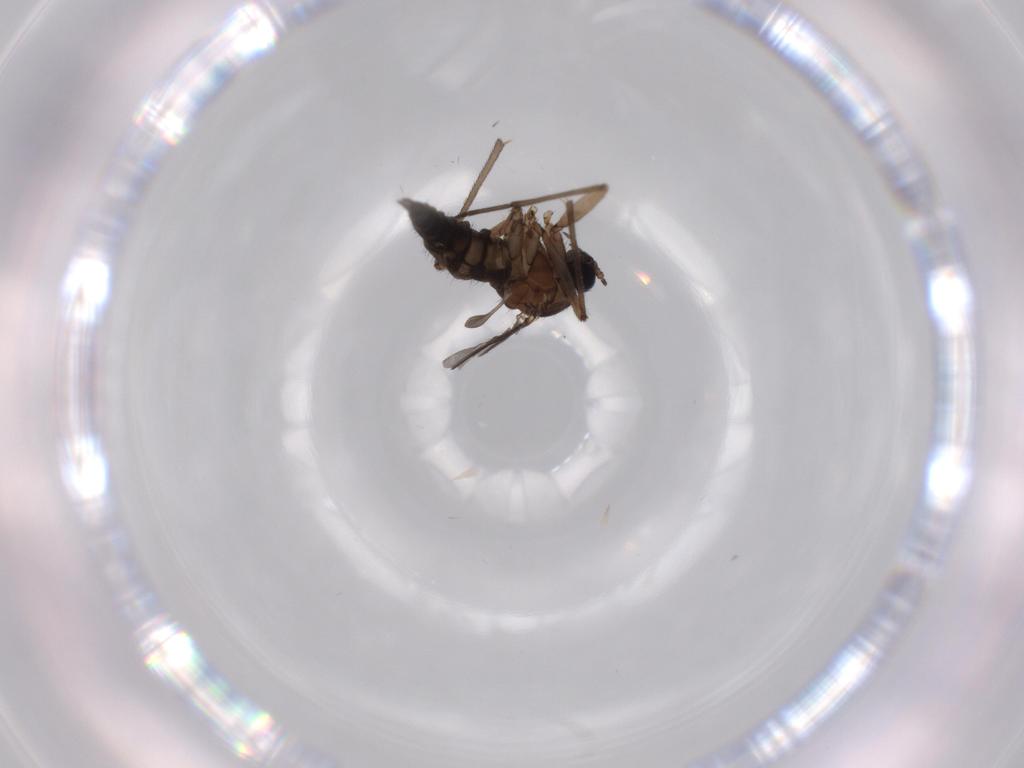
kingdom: Animalia
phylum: Arthropoda
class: Insecta
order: Diptera
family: Sciaridae
